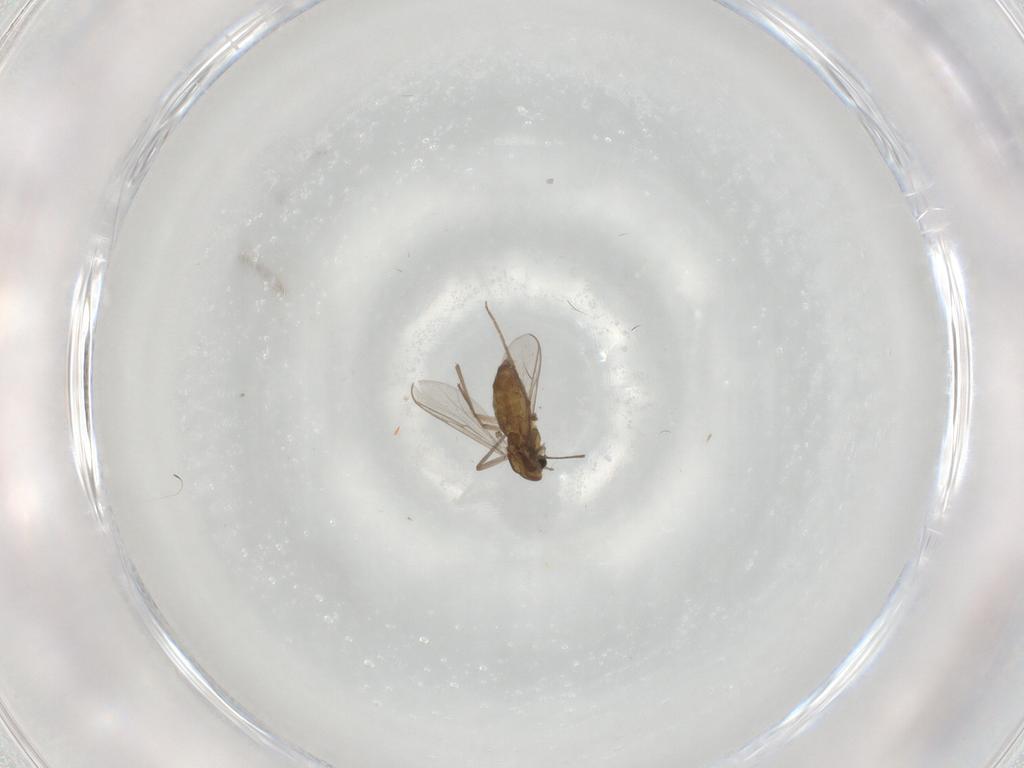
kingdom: Animalia
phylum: Arthropoda
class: Insecta
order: Diptera
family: Chironomidae
